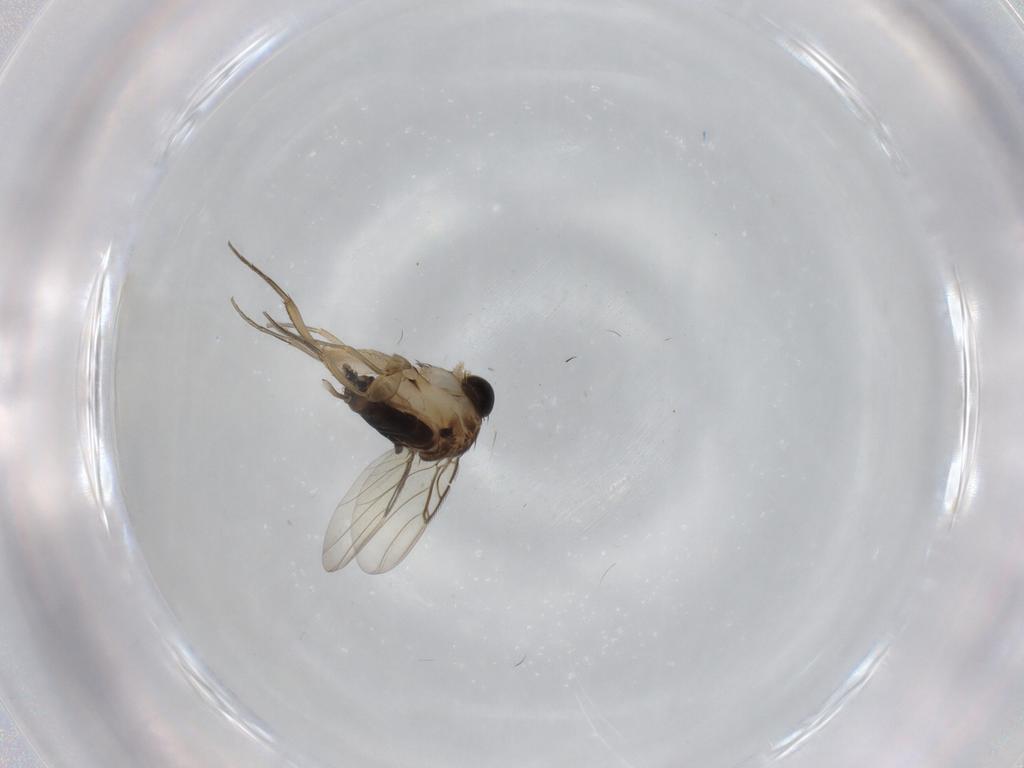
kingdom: Animalia
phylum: Arthropoda
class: Insecta
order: Diptera
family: Phoridae
